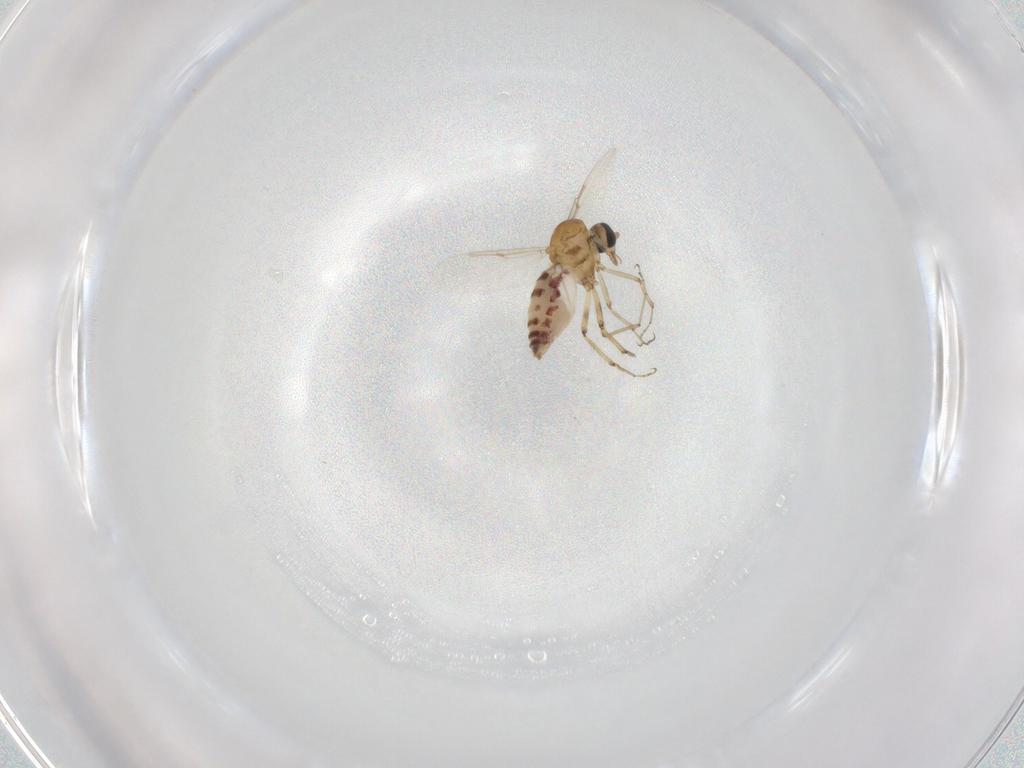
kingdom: Animalia
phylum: Arthropoda
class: Insecta
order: Diptera
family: Ceratopogonidae
